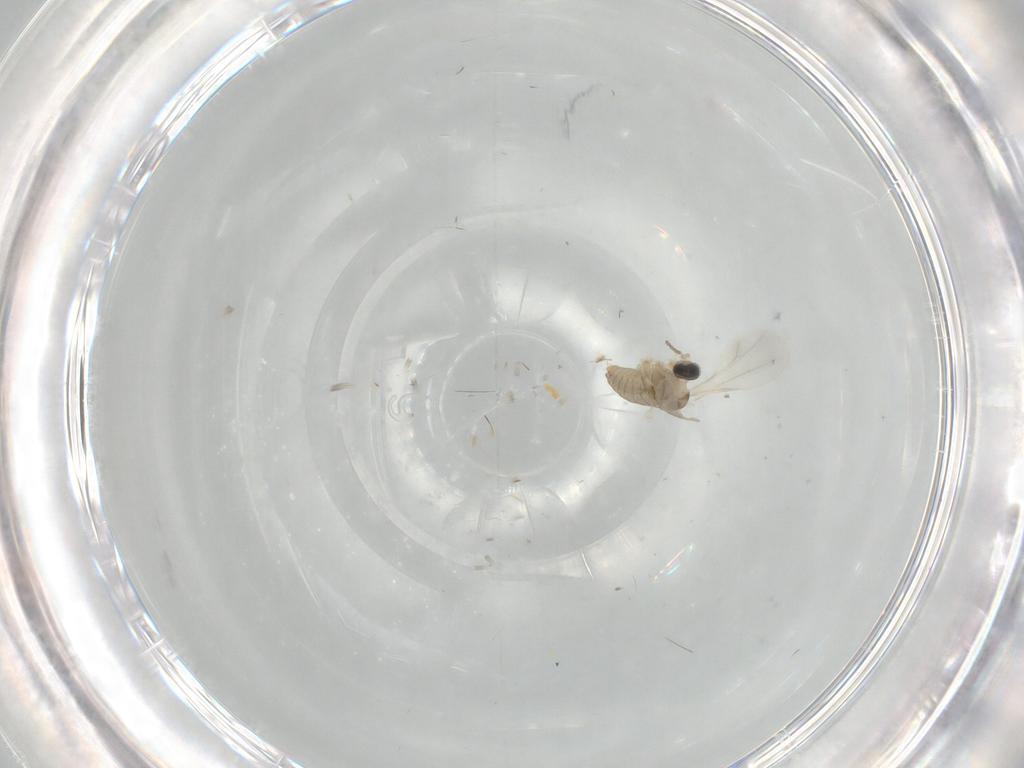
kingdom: Animalia
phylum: Arthropoda
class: Insecta
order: Diptera
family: Cecidomyiidae
